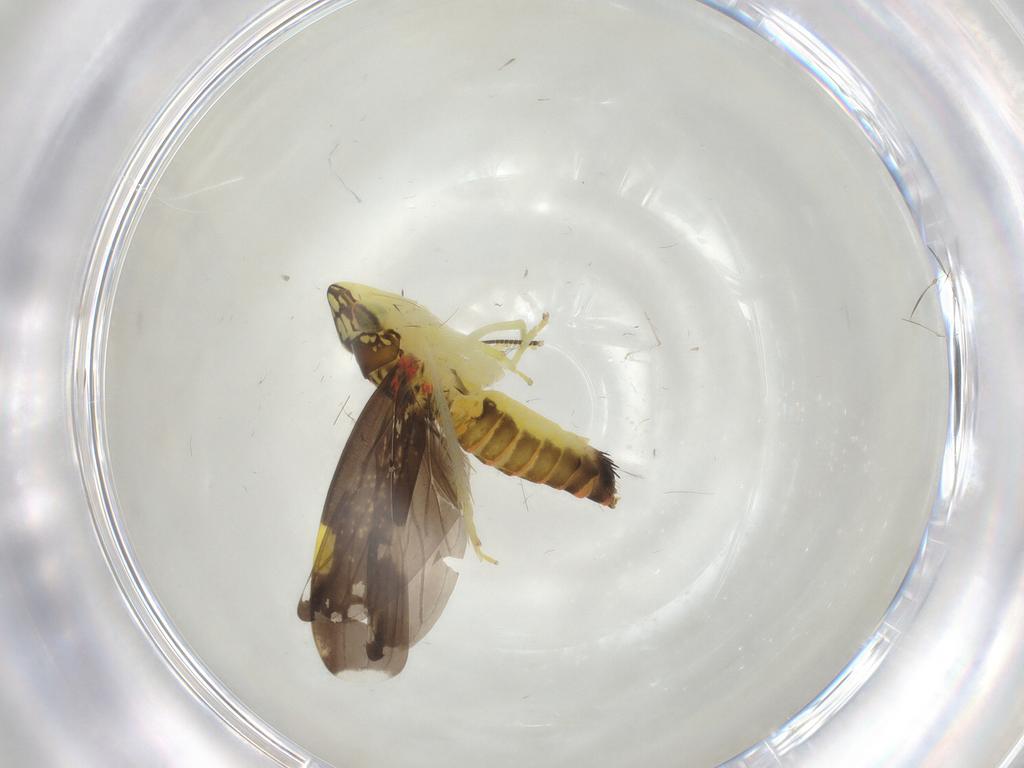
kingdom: Animalia
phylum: Arthropoda
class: Insecta
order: Hemiptera
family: Cicadellidae
